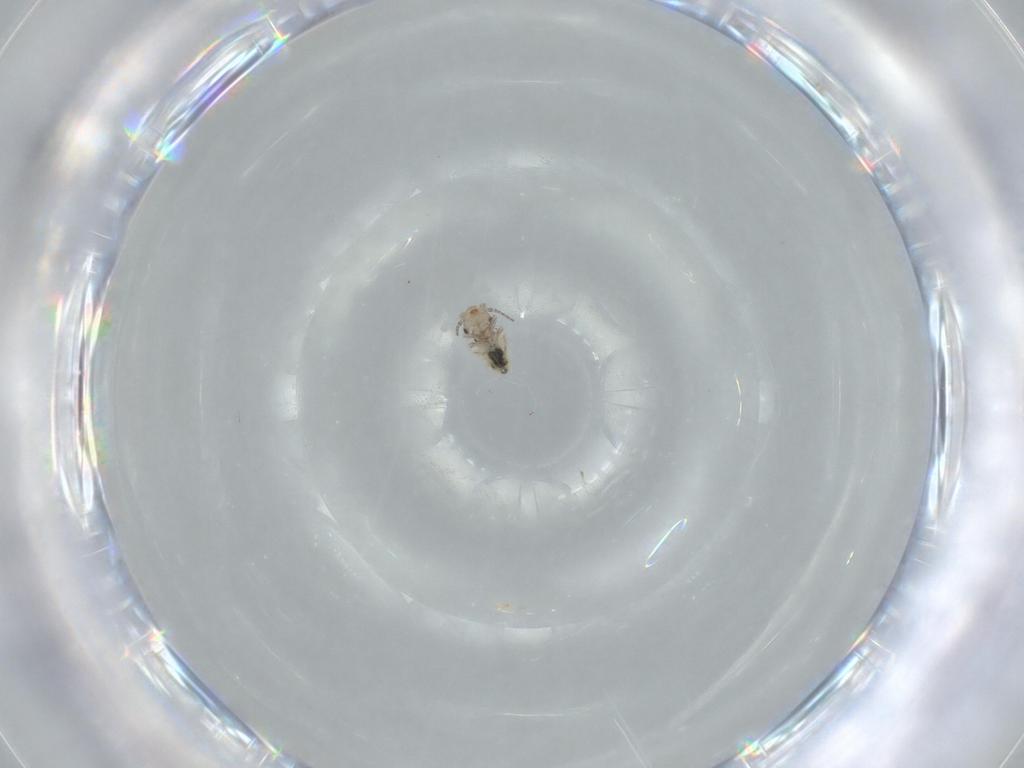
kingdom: Animalia
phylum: Arthropoda
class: Insecta
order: Psocodea
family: Lepidopsocidae
